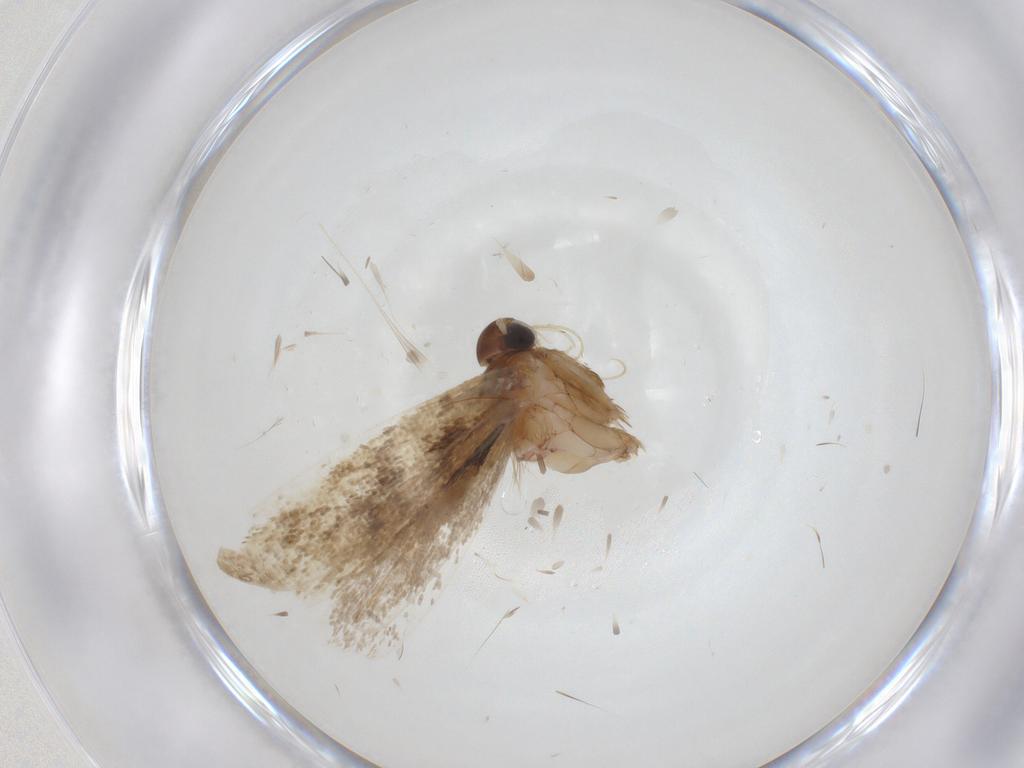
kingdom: Animalia
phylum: Arthropoda
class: Insecta
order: Lepidoptera
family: Gelechiidae
